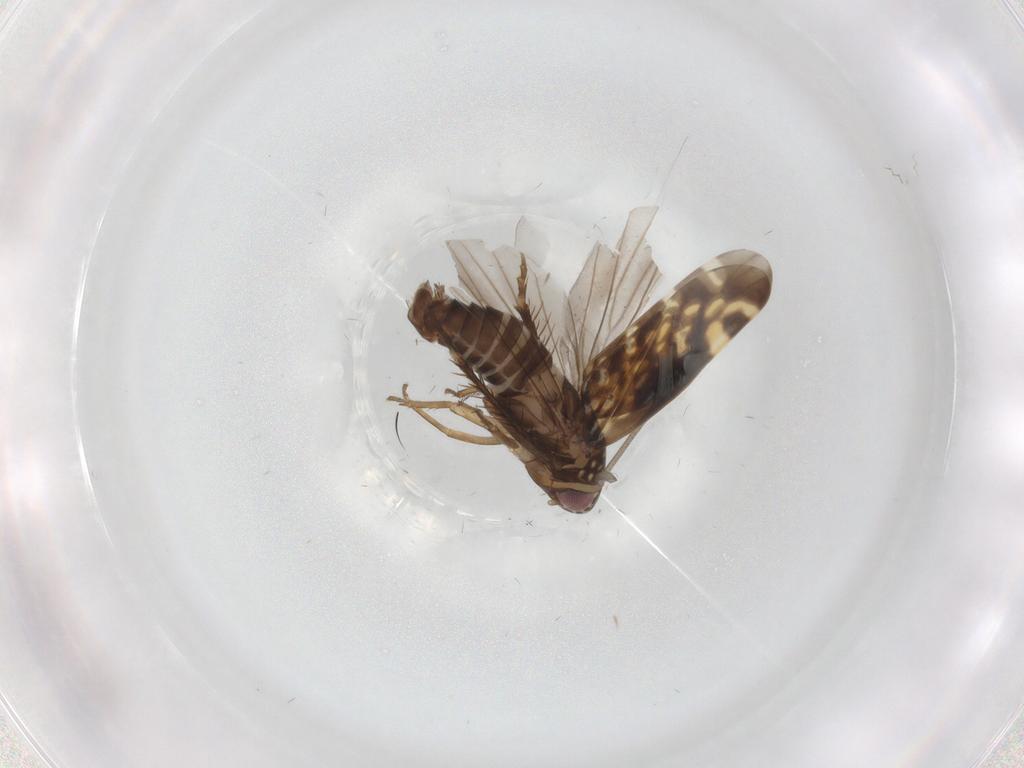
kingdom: Animalia
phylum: Arthropoda
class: Insecta
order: Hemiptera
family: Cicadellidae
